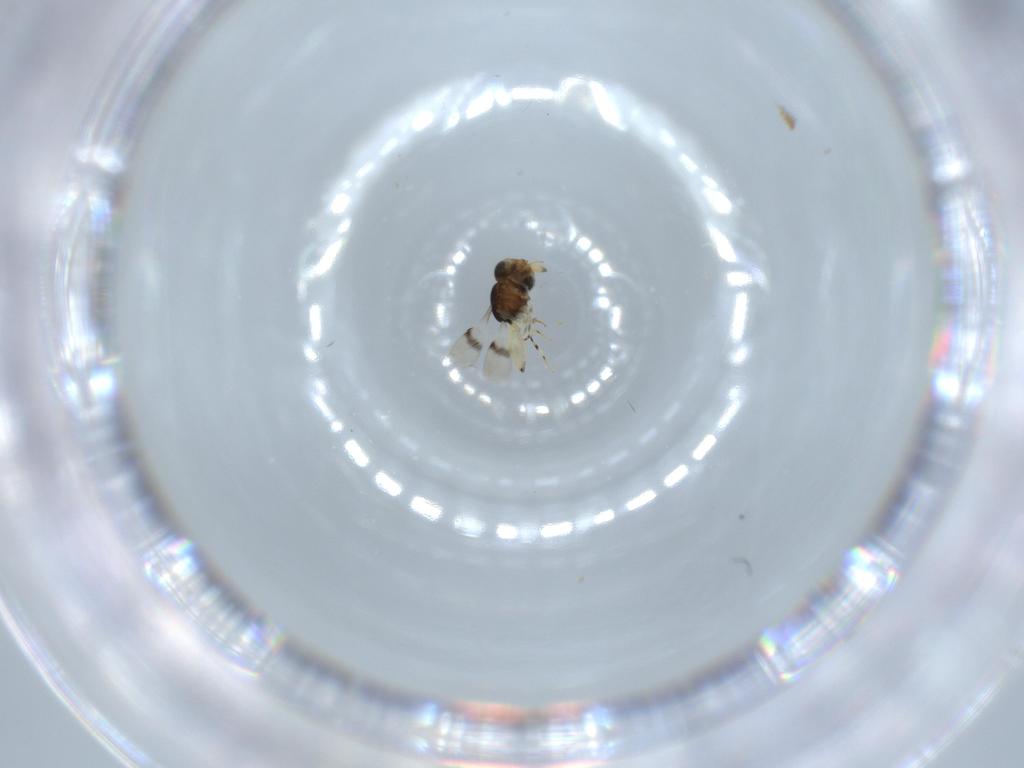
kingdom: Animalia
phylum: Arthropoda
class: Insecta
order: Hymenoptera
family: Scelionidae
